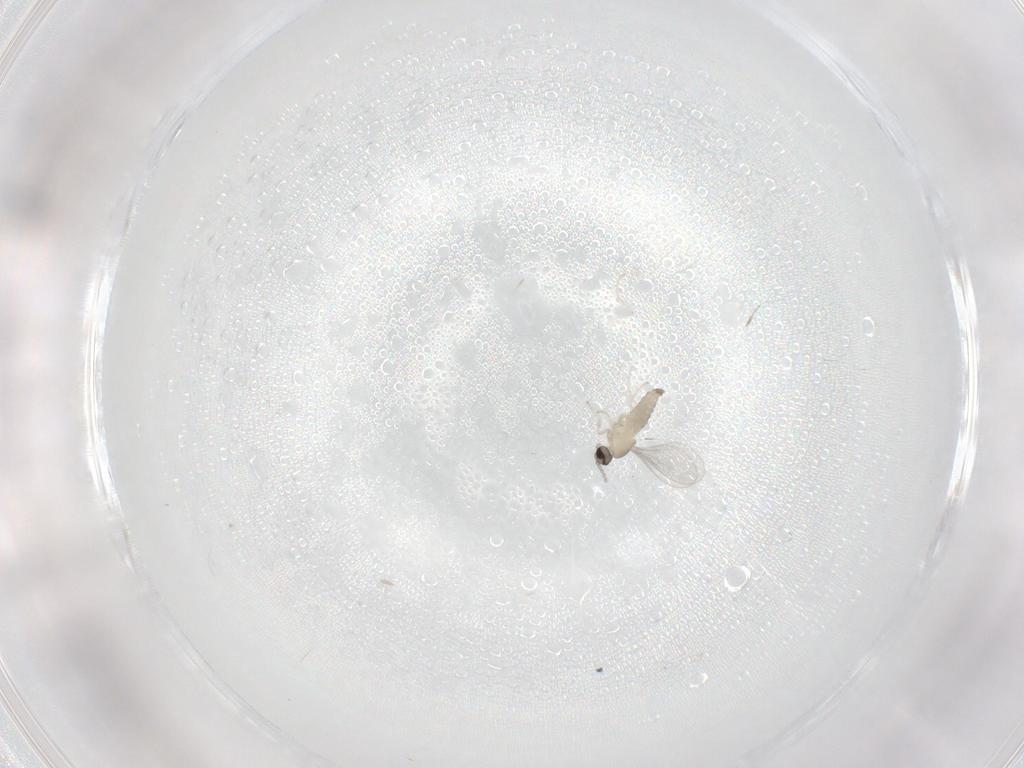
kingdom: Animalia
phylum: Arthropoda
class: Insecta
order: Diptera
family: Cecidomyiidae
